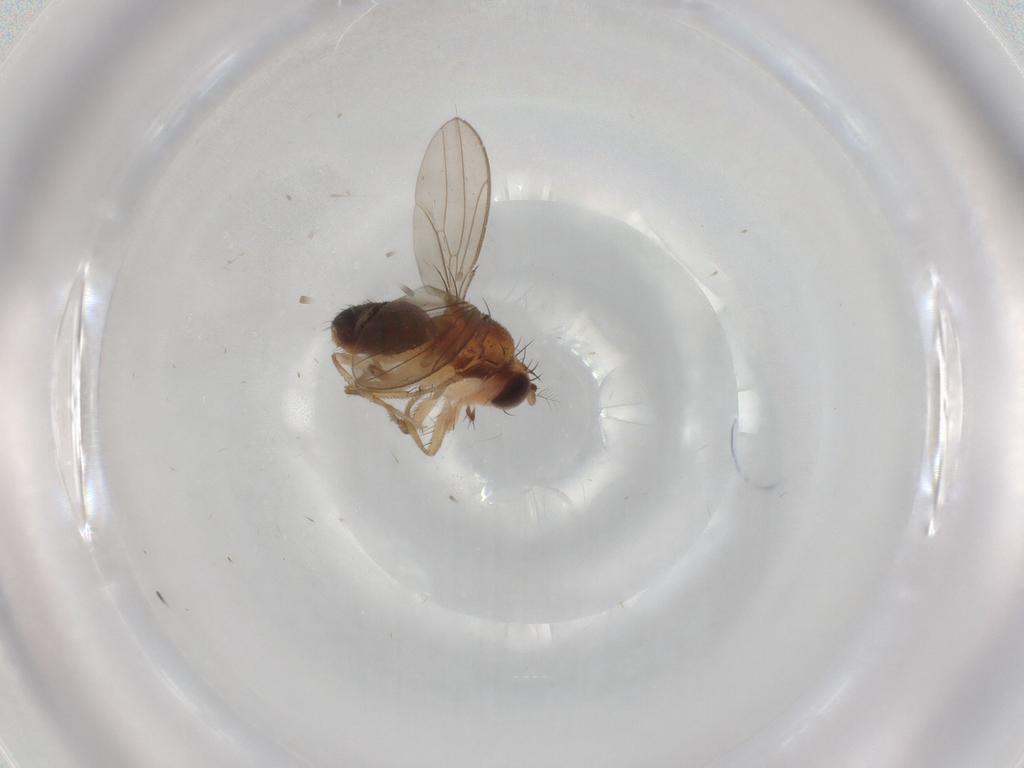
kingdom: Animalia
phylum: Arthropoda
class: Insecta
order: Diptera
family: Drosophilidae
